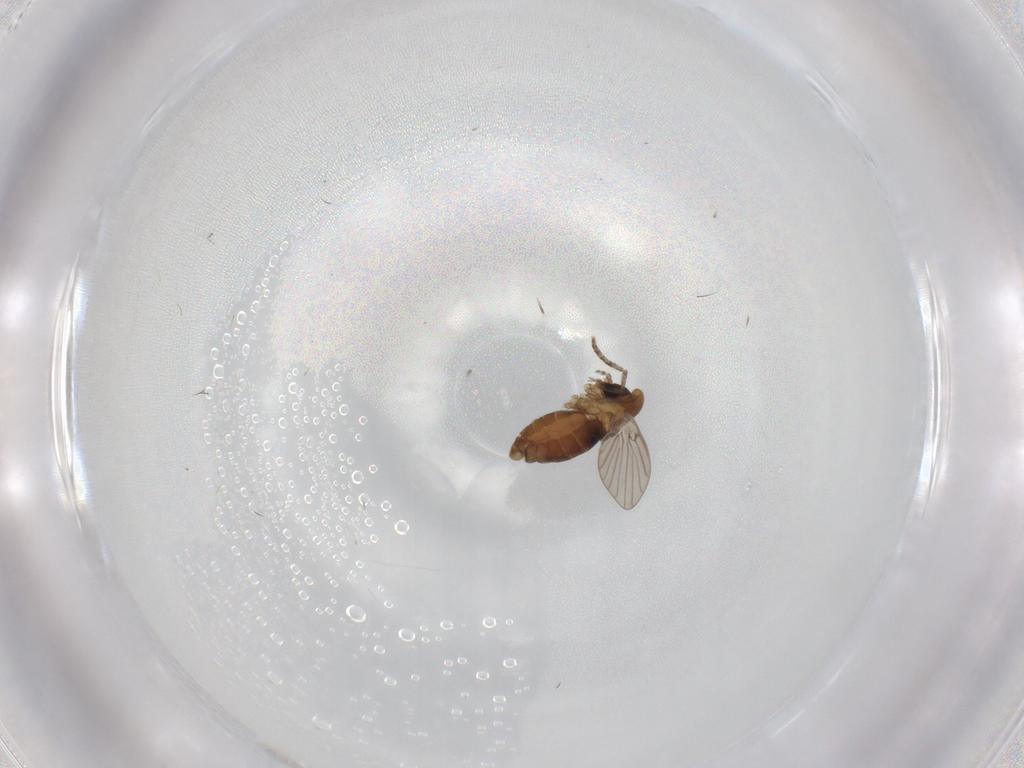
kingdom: Animalia
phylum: Arthropoda
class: Insecta
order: Diptera
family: Psychodidae
